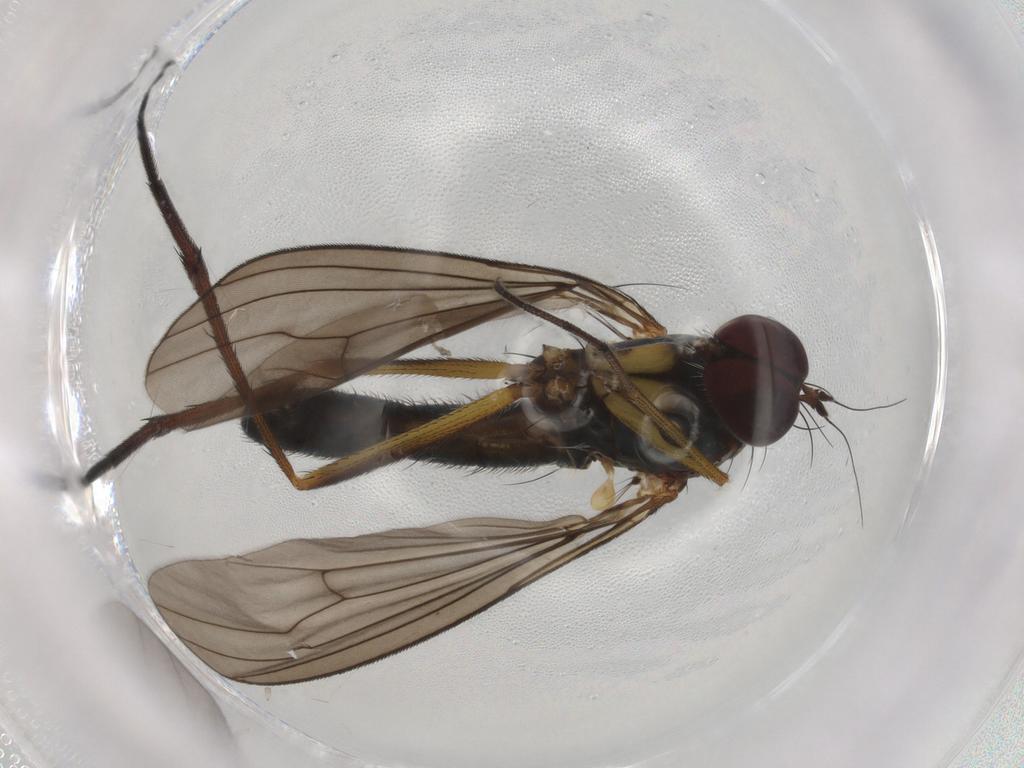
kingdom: Animalia
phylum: Arthropoda
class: Insecta
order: Diptera
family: Dolichopodidae
